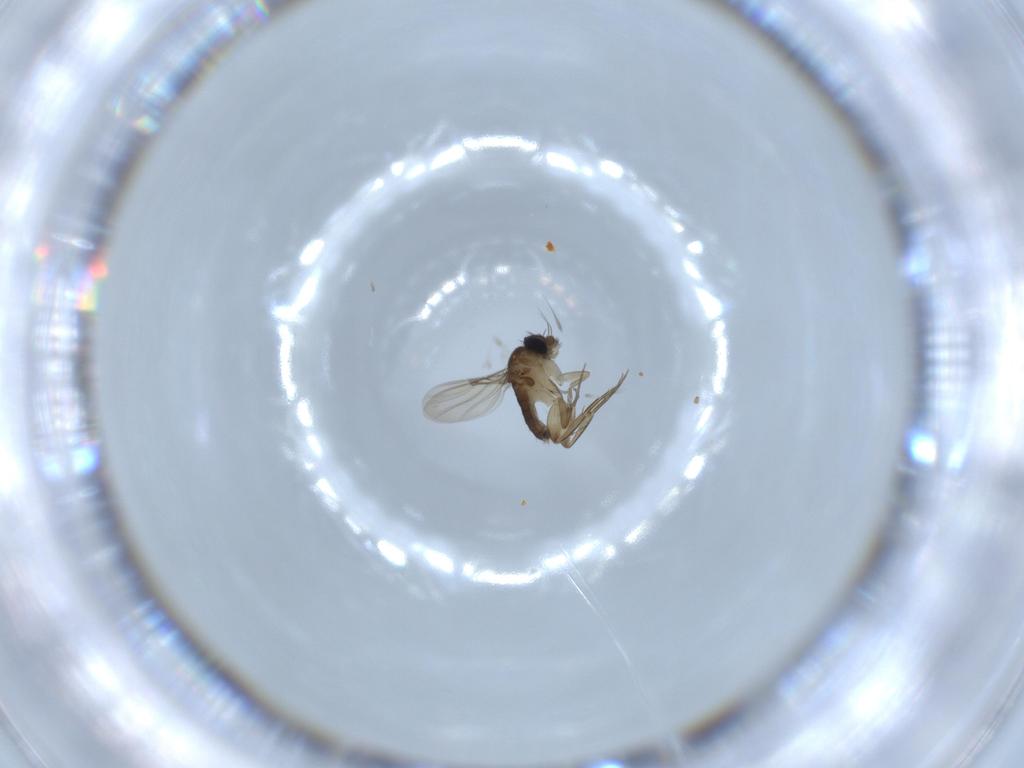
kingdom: Animalia
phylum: Arthropoda
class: Insecta
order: Diptera
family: Phoridae
